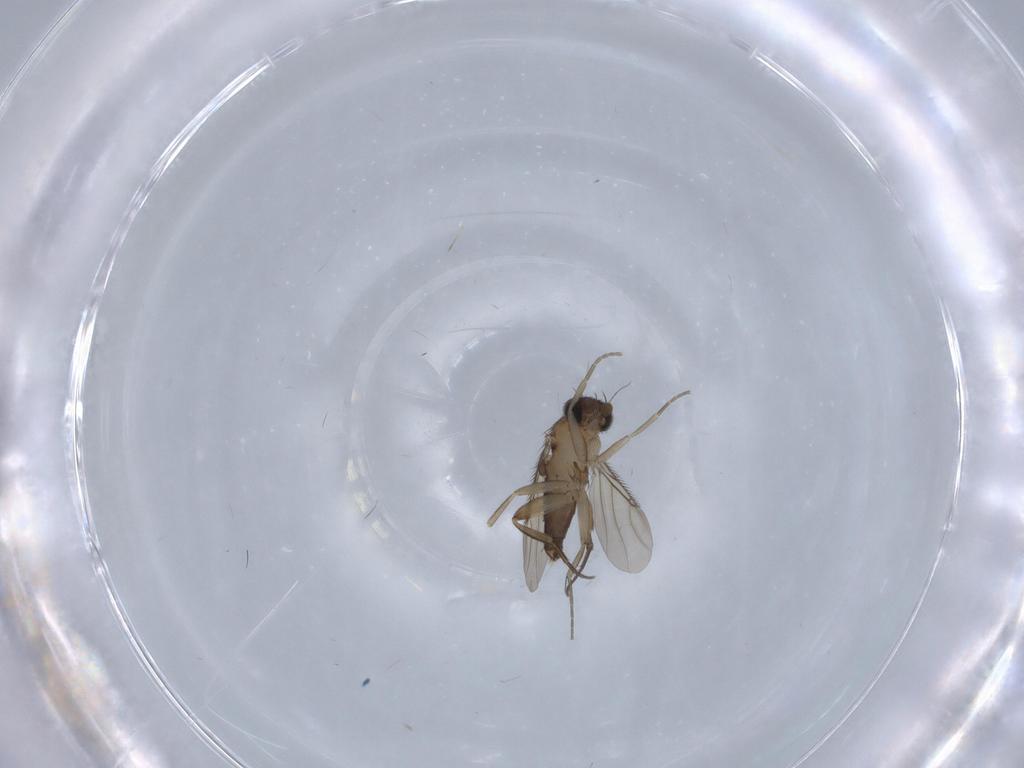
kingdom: Animalia
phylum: Arthropoda
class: Insecta
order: Diptera
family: Phoridae
